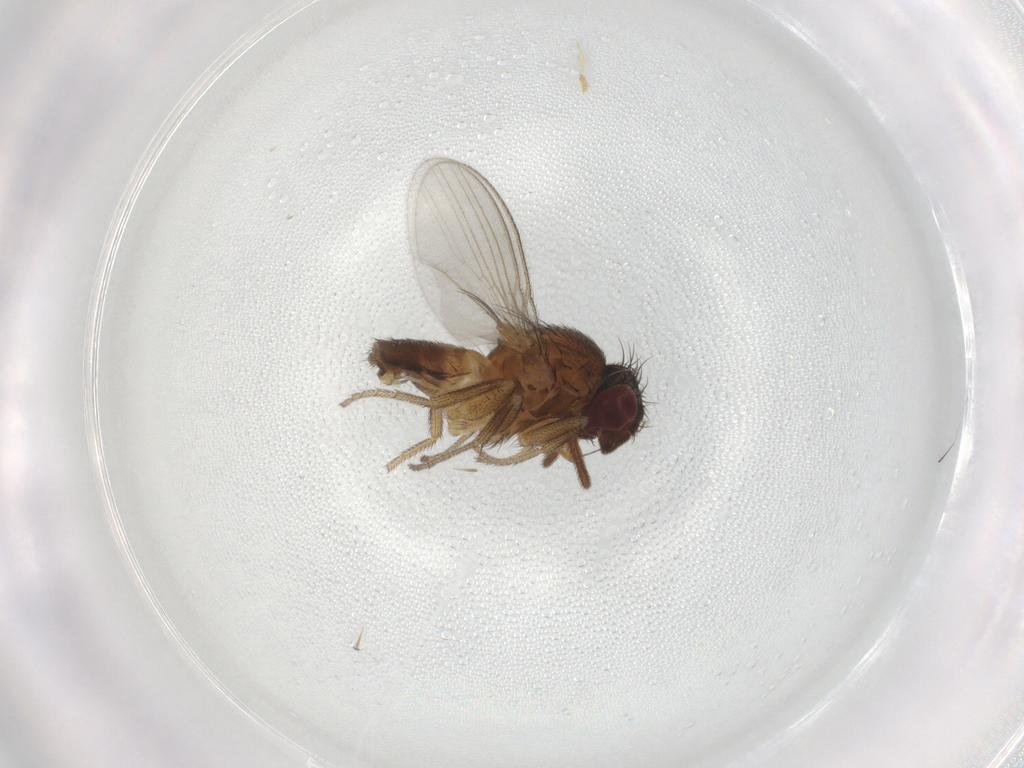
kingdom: Animalia
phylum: Arthropoda
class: Insecta
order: Diptera
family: Milichiidae
